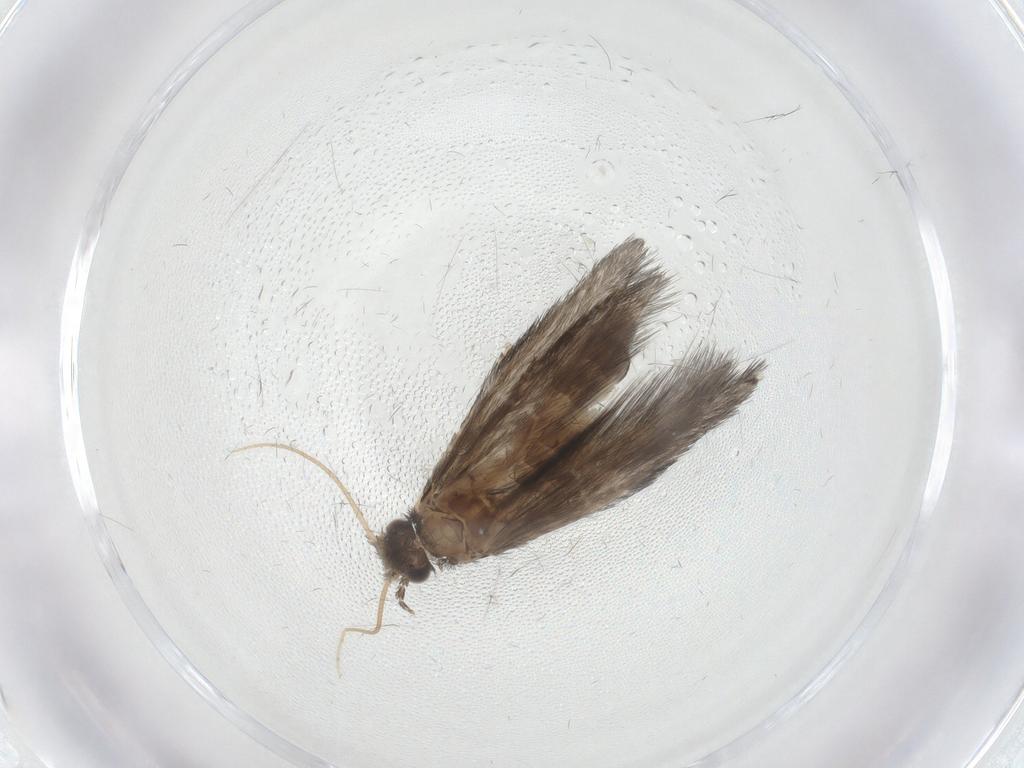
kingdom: Animalia
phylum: Arthropoda
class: Insecta
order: Trichoptera
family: Hydroptilidae
